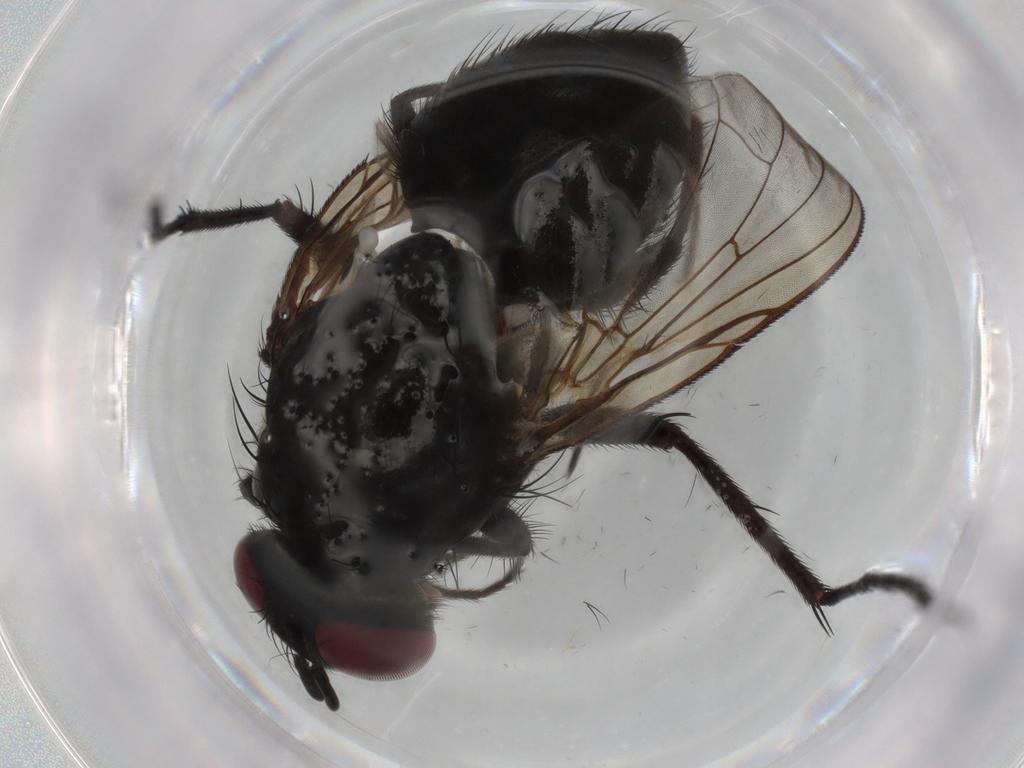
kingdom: Animalia
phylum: Arthropoda
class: Insecta
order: Diptera
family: Muscidae
